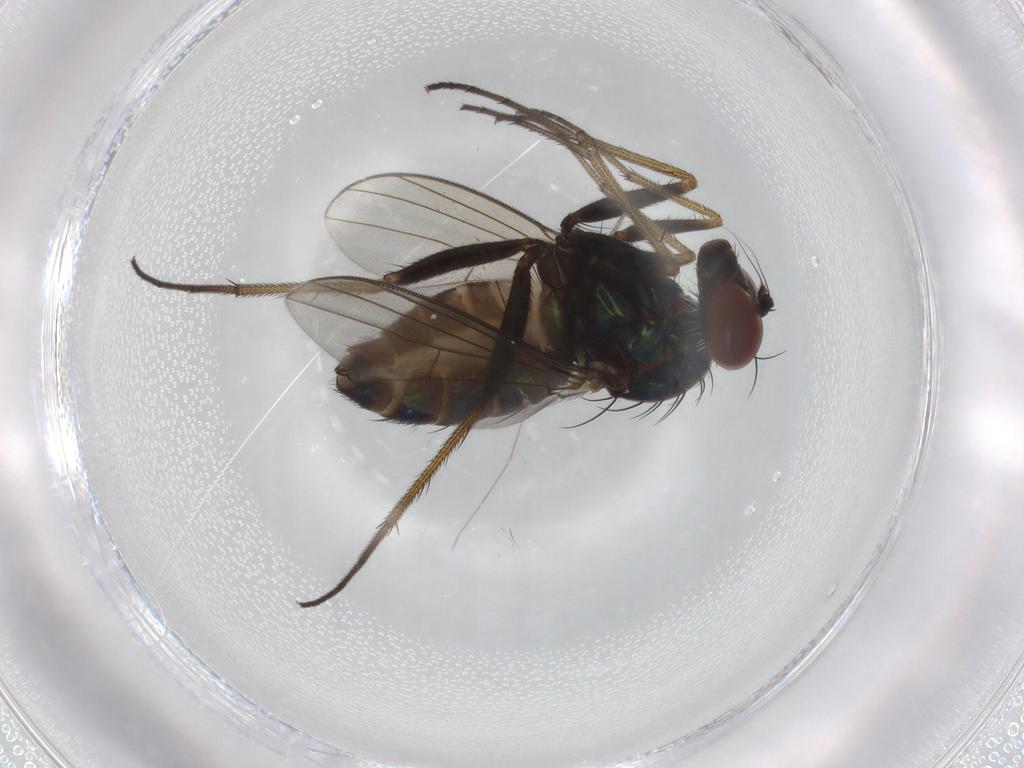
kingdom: Animalia
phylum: Arthropoda
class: Insecta
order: Diptera
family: Dolichopodidae
